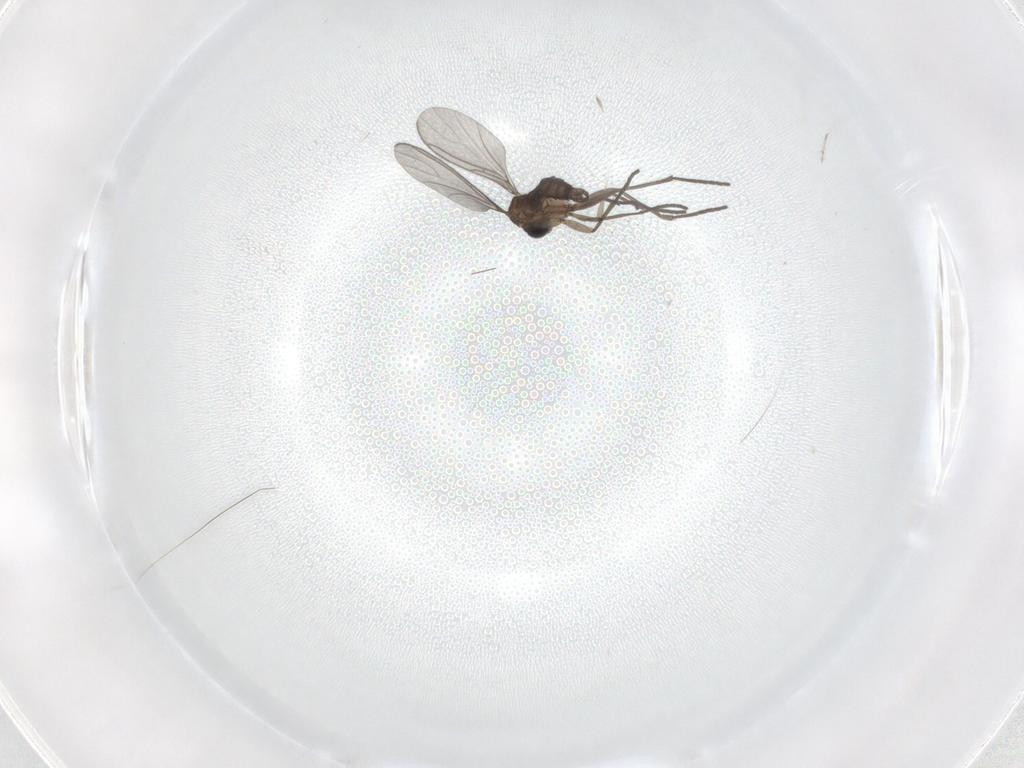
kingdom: Animalia
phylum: Arthropoda
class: Insecta
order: Diptera
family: Sciaridae
